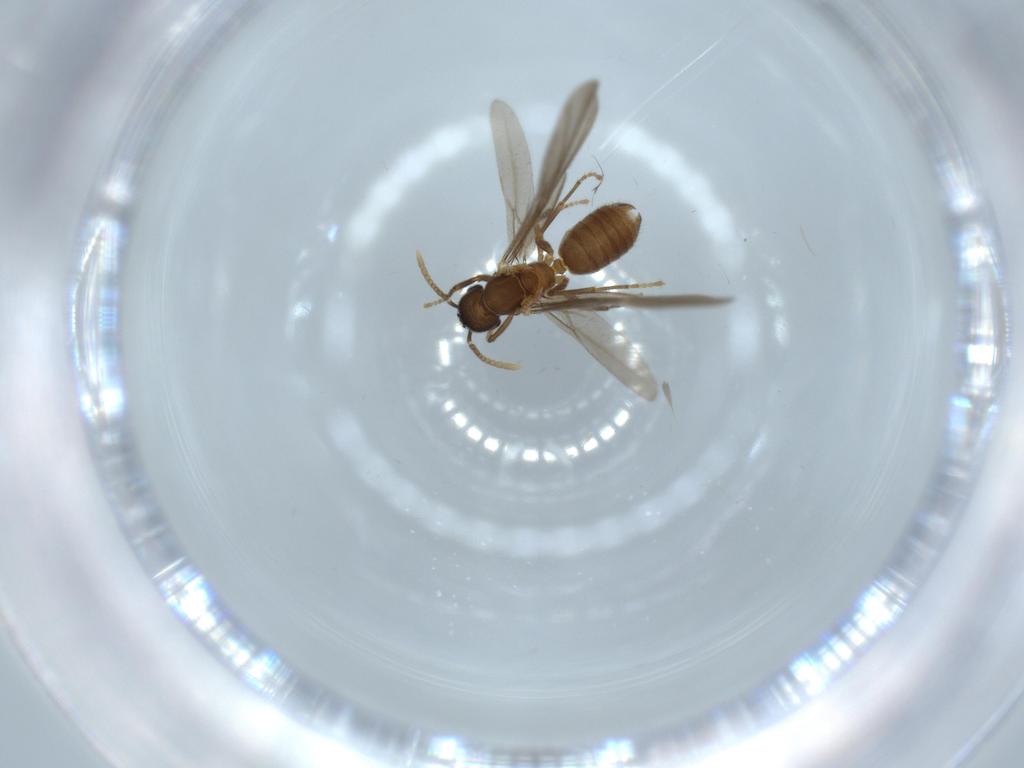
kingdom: Animalia
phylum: Arthropoda
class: Insecta
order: Hymenoptera
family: Formicidae
